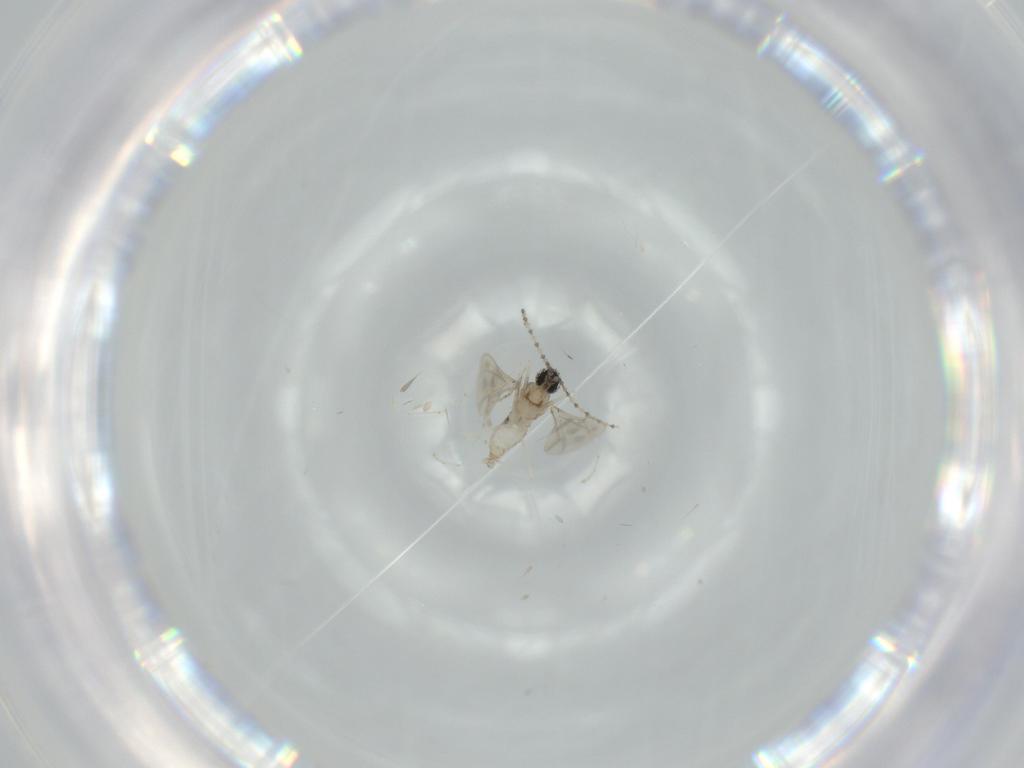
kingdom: Animalia
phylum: Arthropoda
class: Insecta
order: Diptera
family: Cecidomyiidae
